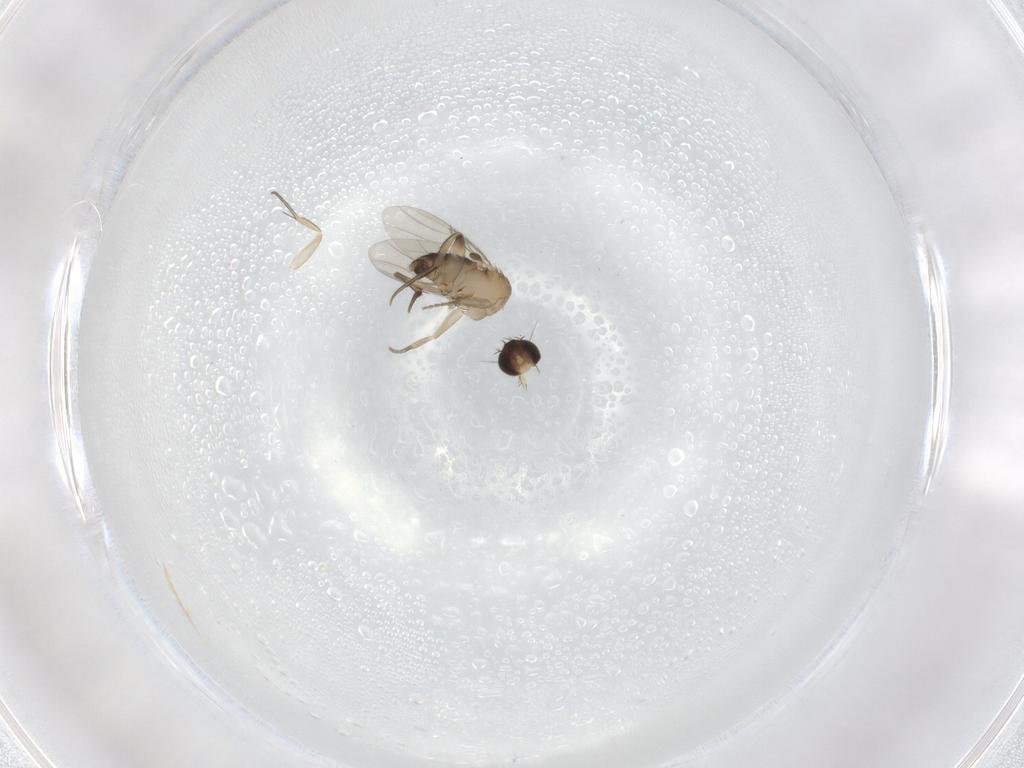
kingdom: Animalia
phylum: Arthropoda
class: Insecta
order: Diptera
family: Phoridae
